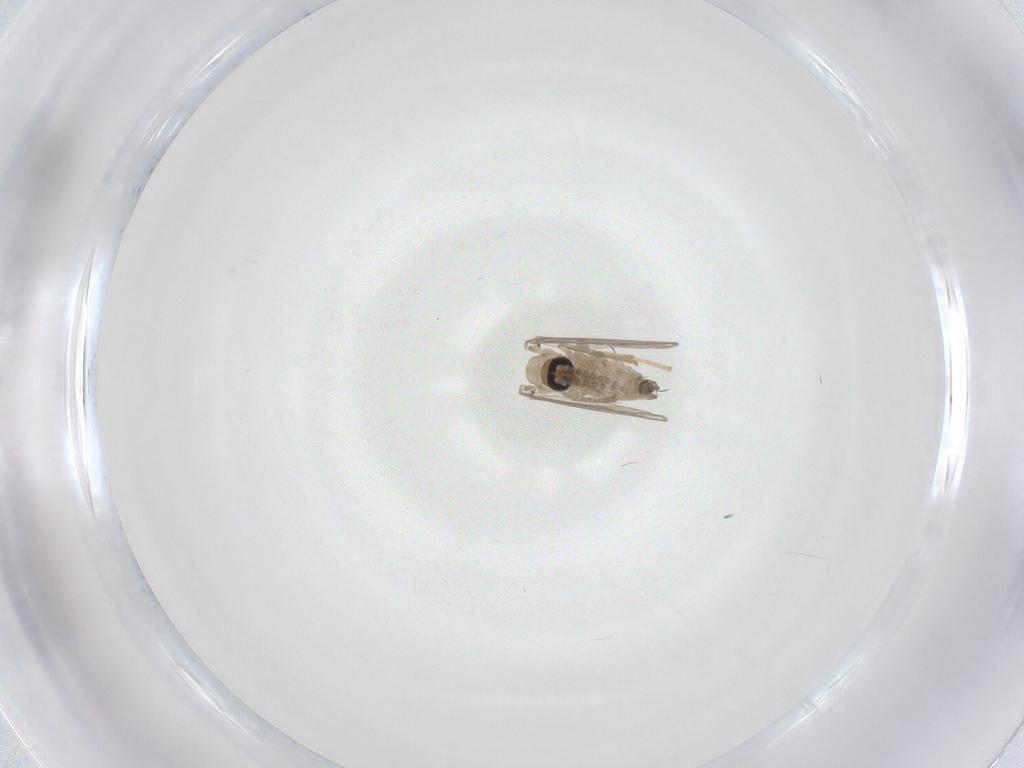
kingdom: Animalia
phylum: Arthropoda
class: Insecta
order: Diptera
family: Psychodidae
